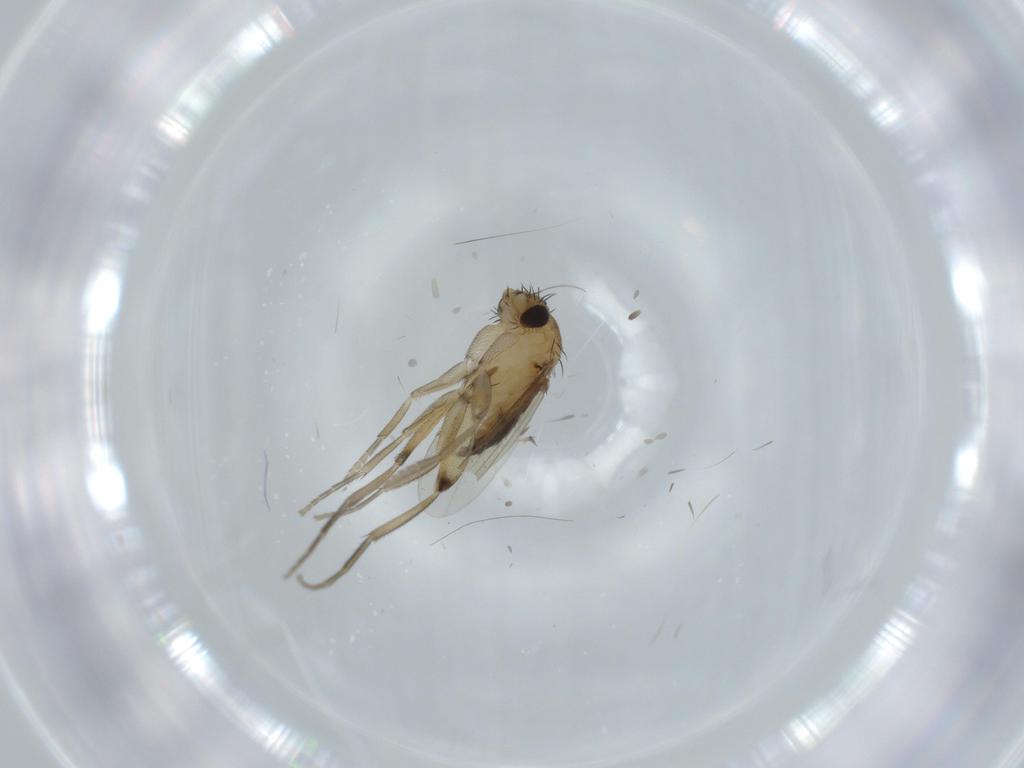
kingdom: Animalia
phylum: Arthropoda
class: Insecta
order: Diptera
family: Phoridae
